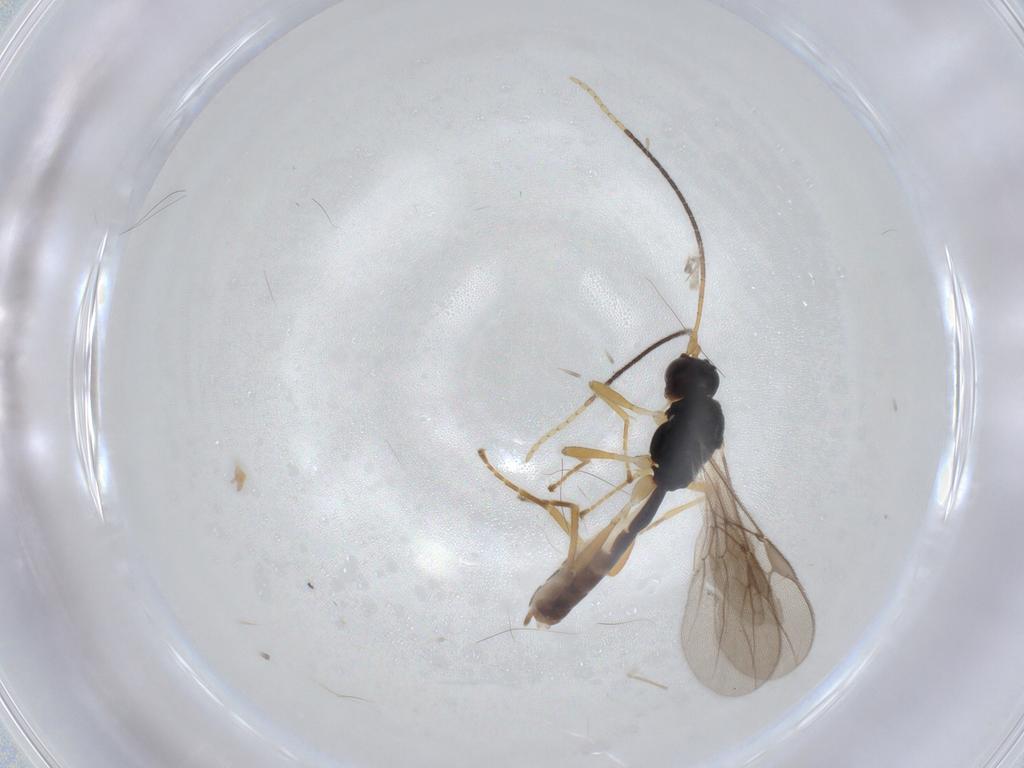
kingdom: Animalia
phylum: Arthropoda
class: Insecta
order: Hymenoptera
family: Braconidae
